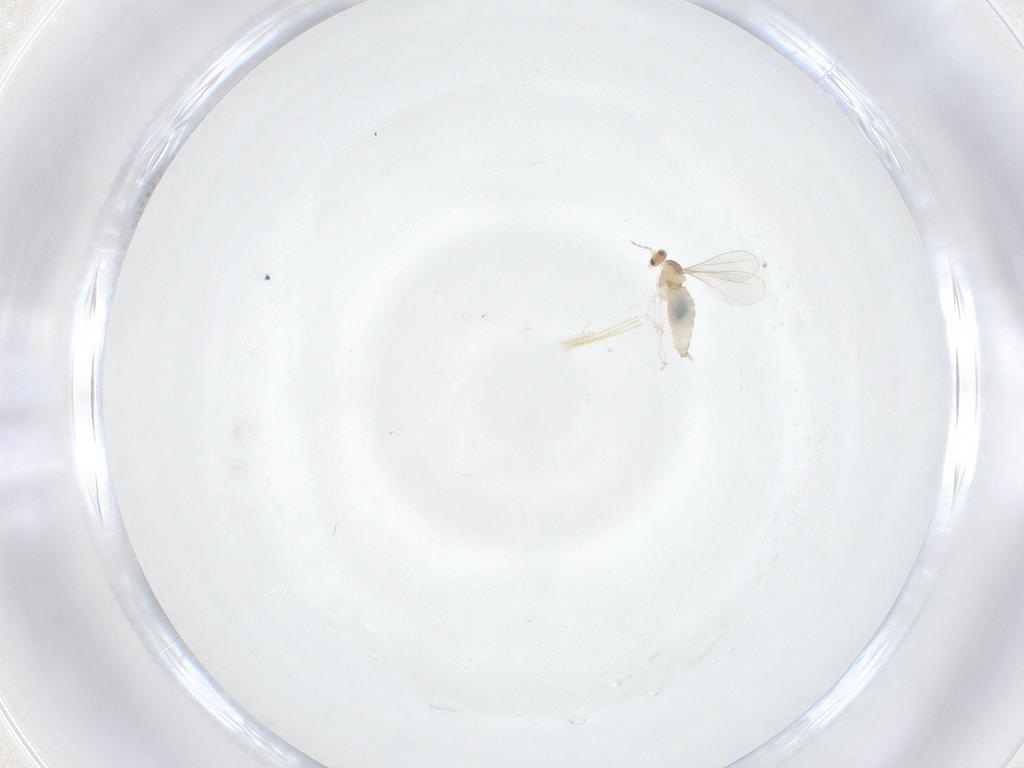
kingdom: Animalia
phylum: Arthropoda
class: Insecta
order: Diptera
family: Cecidomyiidae
